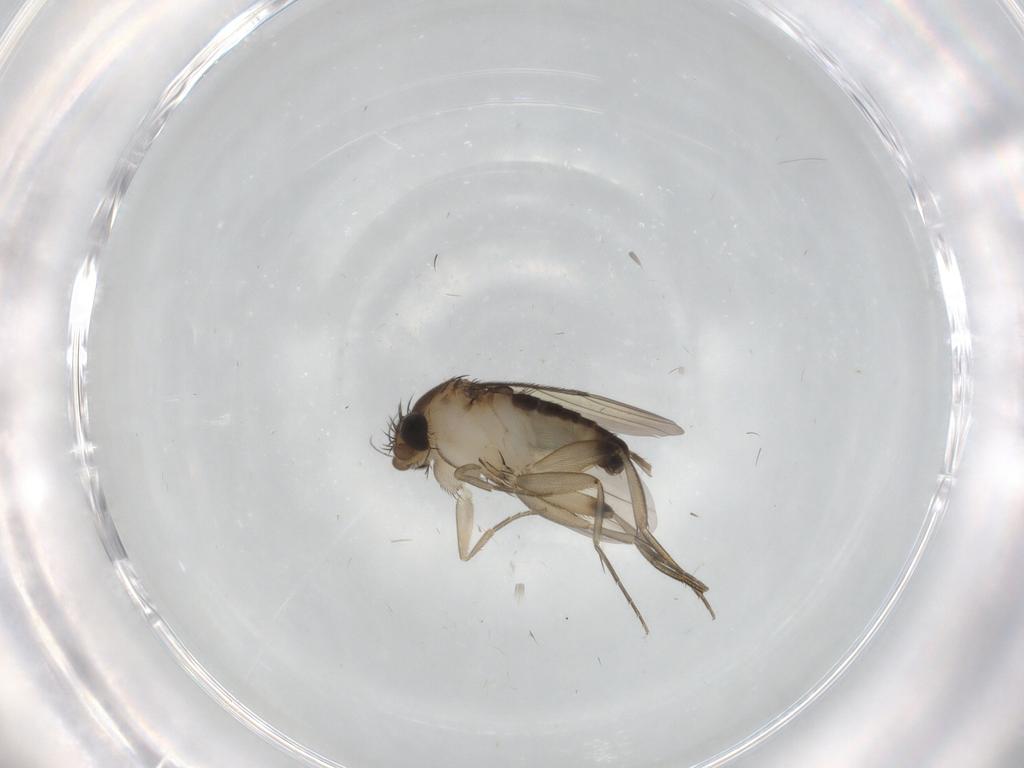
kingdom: Animalia
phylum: Arthropoda
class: Insecta
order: Diptera
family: Phoridae
